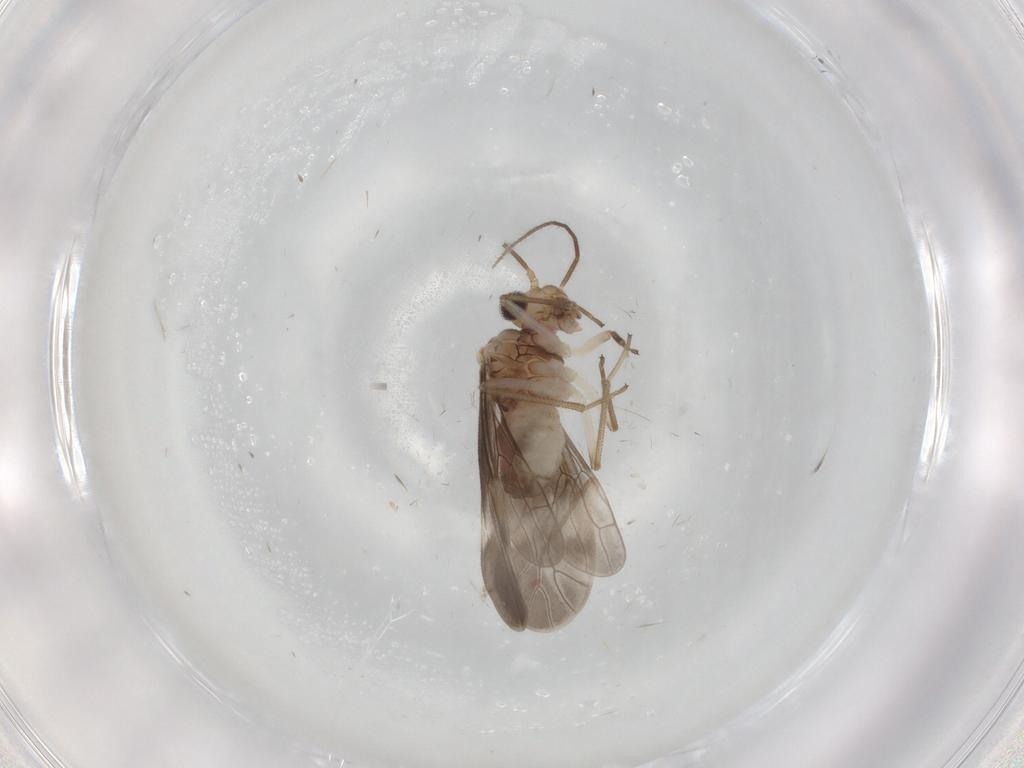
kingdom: Animalia
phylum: Arthropoda
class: Insecta
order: Psocodea
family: Caeciliusidae
